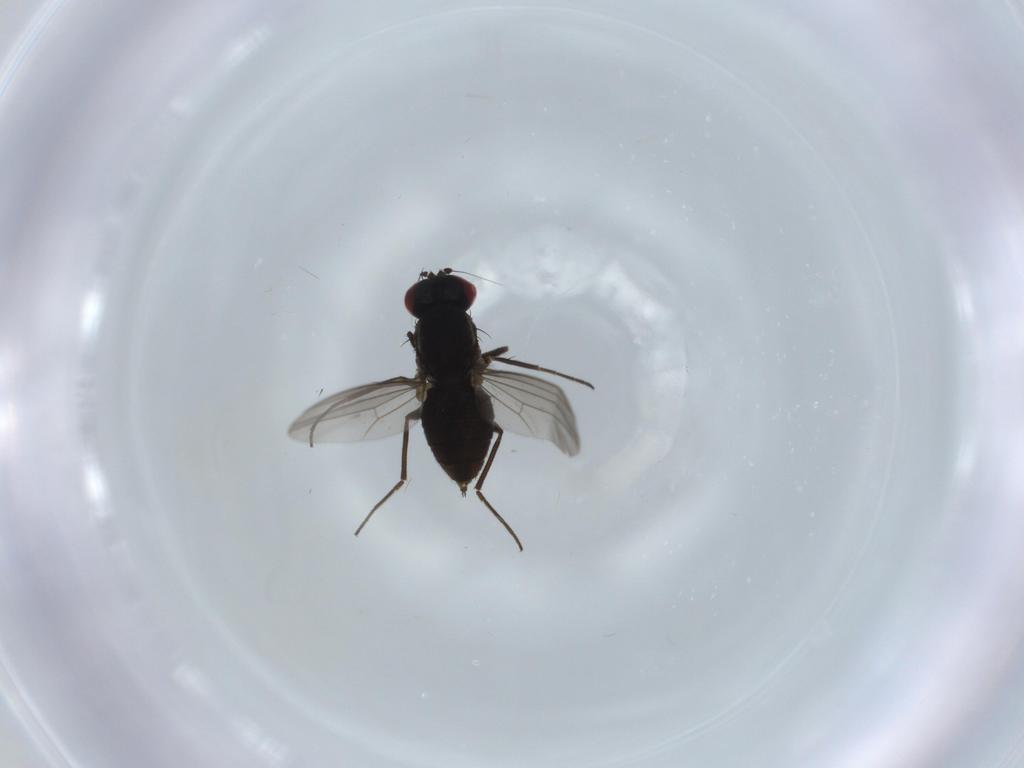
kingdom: Animalia
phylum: Arthropoda
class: Insecta
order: Diptera
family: Dolichopodidae
